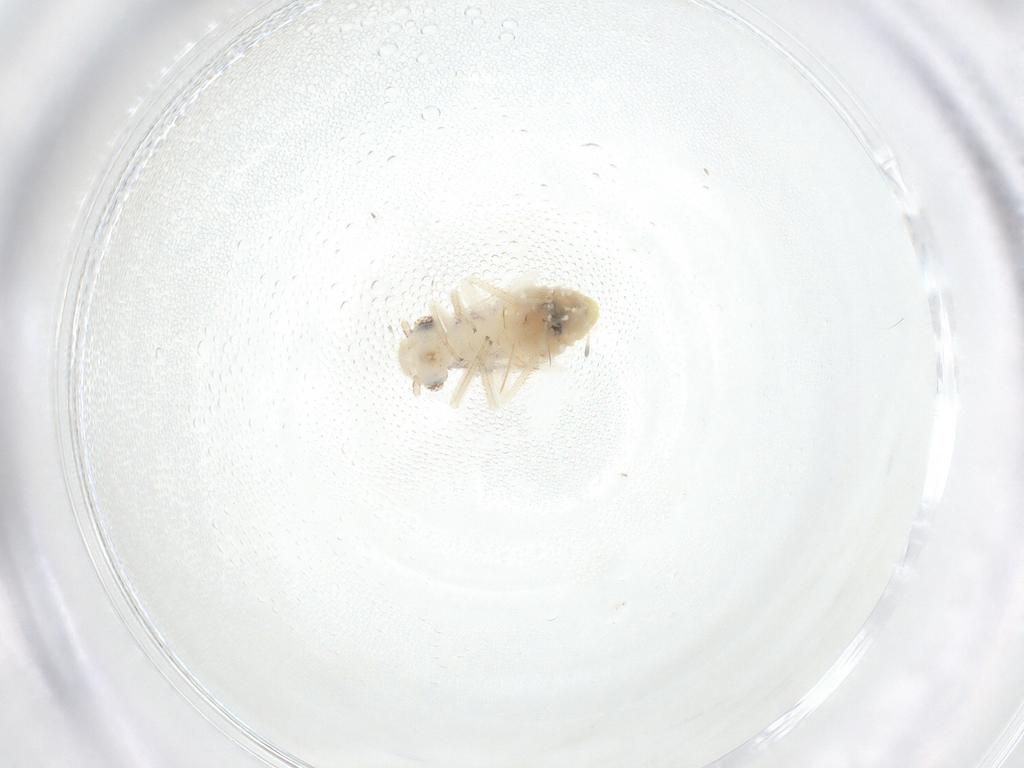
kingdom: Animalia
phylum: Arthropoda
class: Insecta
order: Psocodea
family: Pseudocaeciliidae
